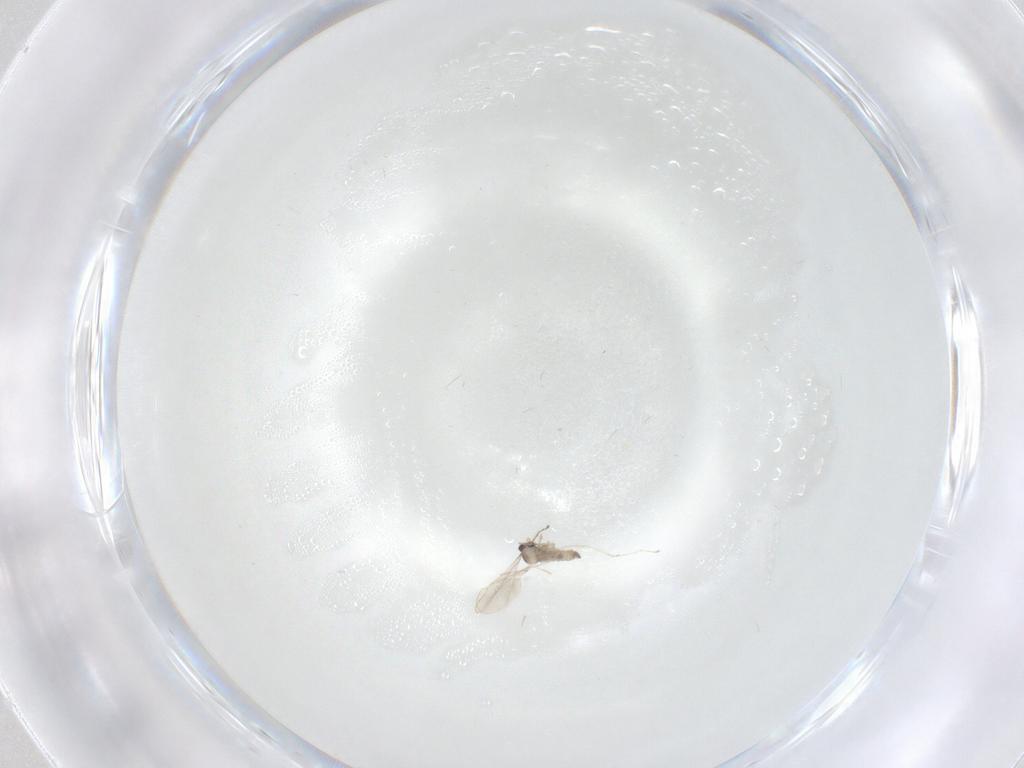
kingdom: Animalia
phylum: Arthropoda
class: Insecta
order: Diptera
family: Cecidomyiidae
